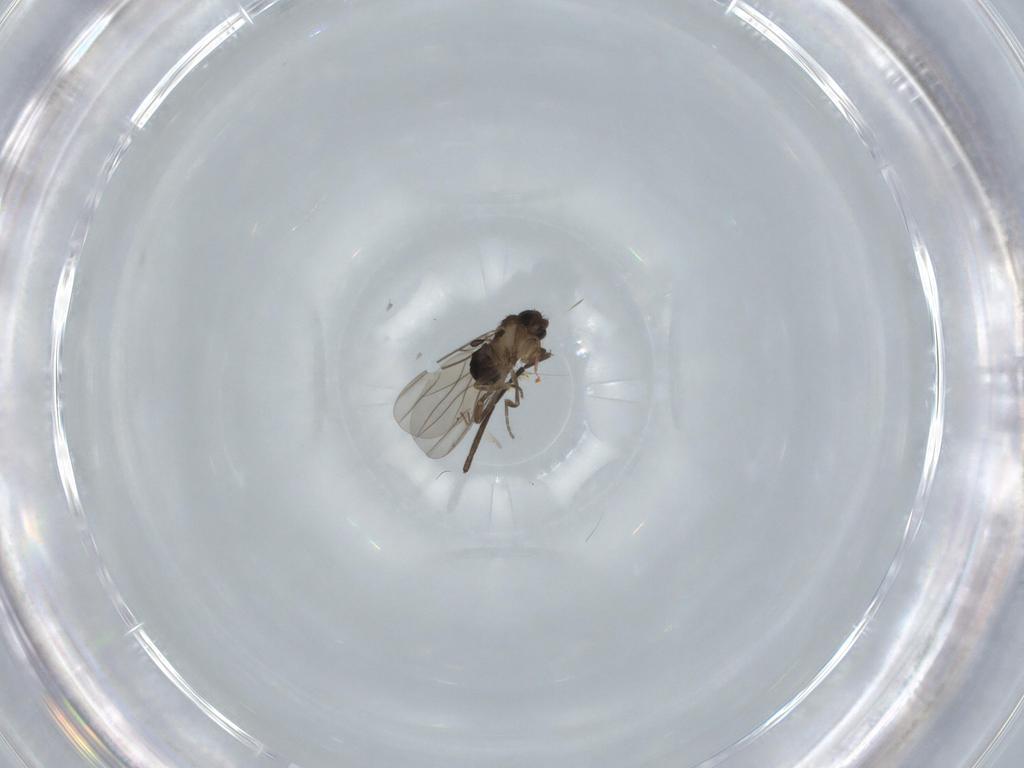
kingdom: Animalia
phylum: Arthropoda
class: Insecta
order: Diptera
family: Phoridae
